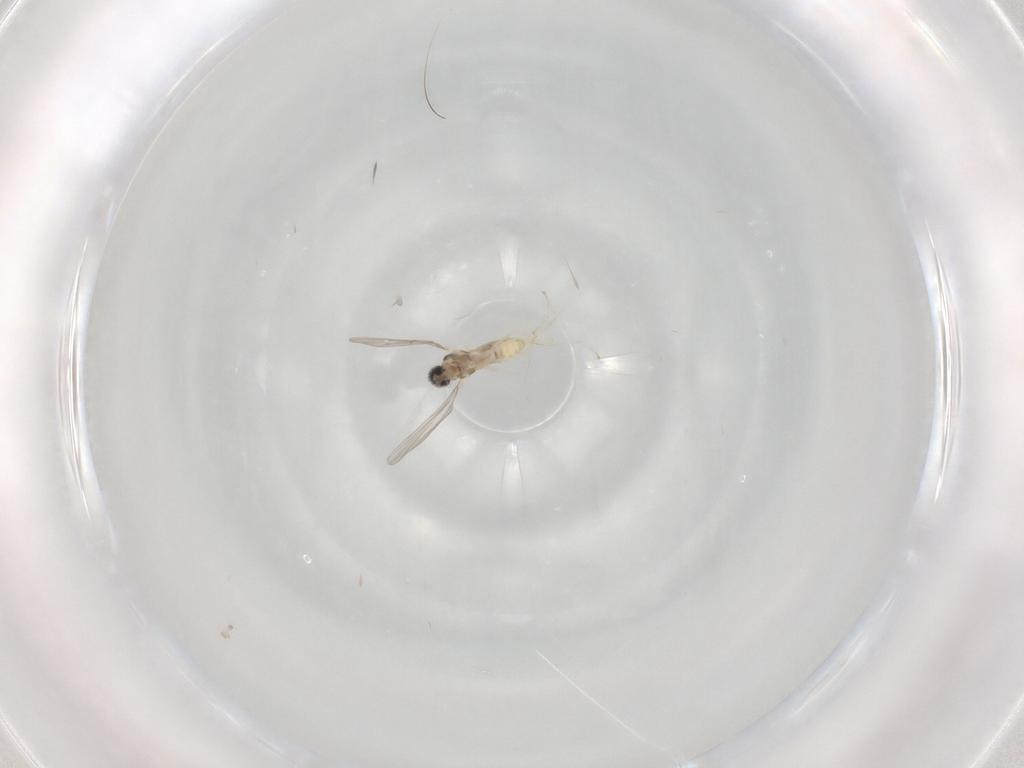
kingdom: Animalia
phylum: Arthropoda
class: Insecta
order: Diptera
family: Cecidomyiidae
